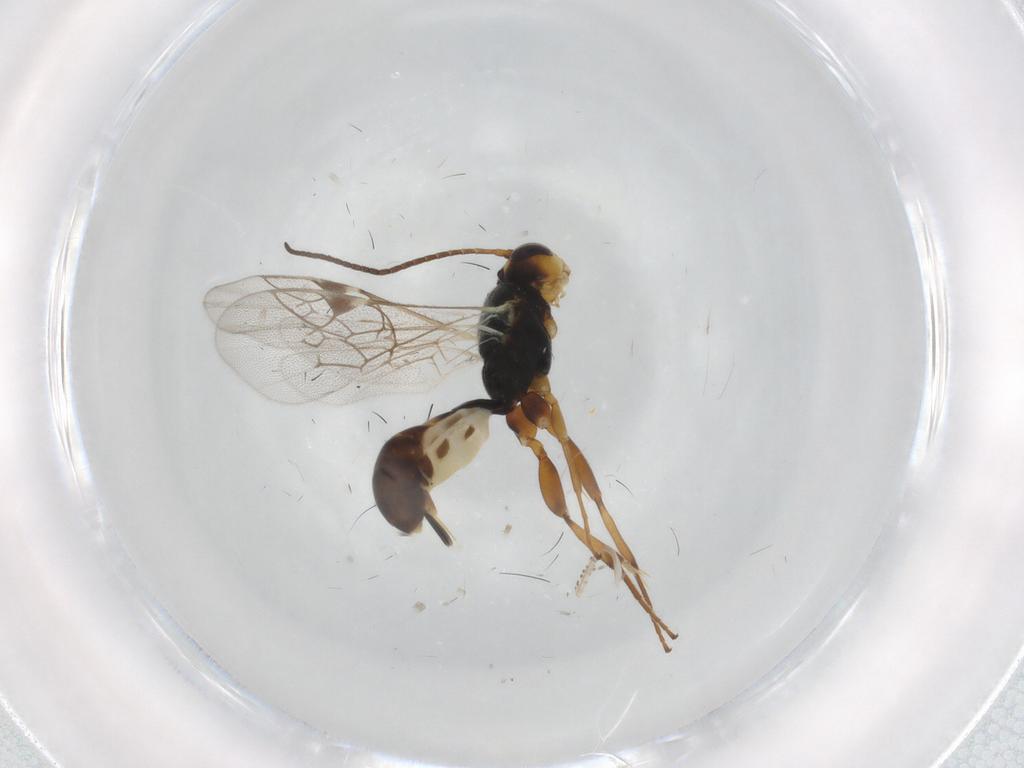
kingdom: Animalia
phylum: Arthropoda
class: Insecta
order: Hymenoptera
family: Ichneumonidae
